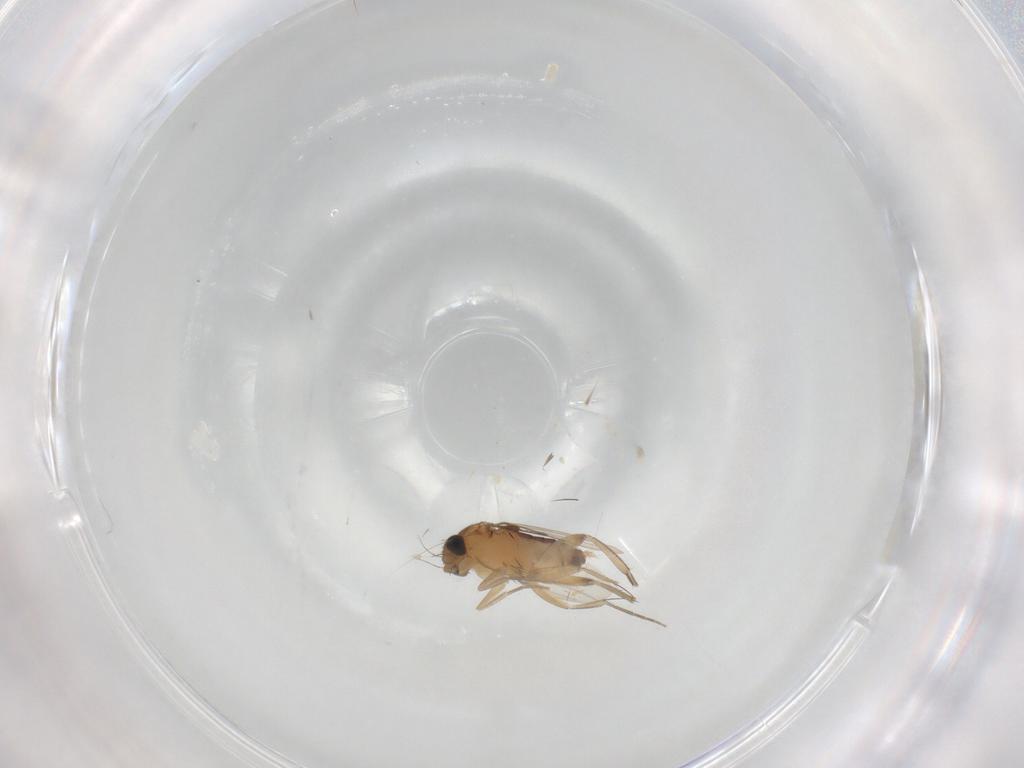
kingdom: Animalia
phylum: Arthropoda
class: Insecta
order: Diptera
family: Phoridae
